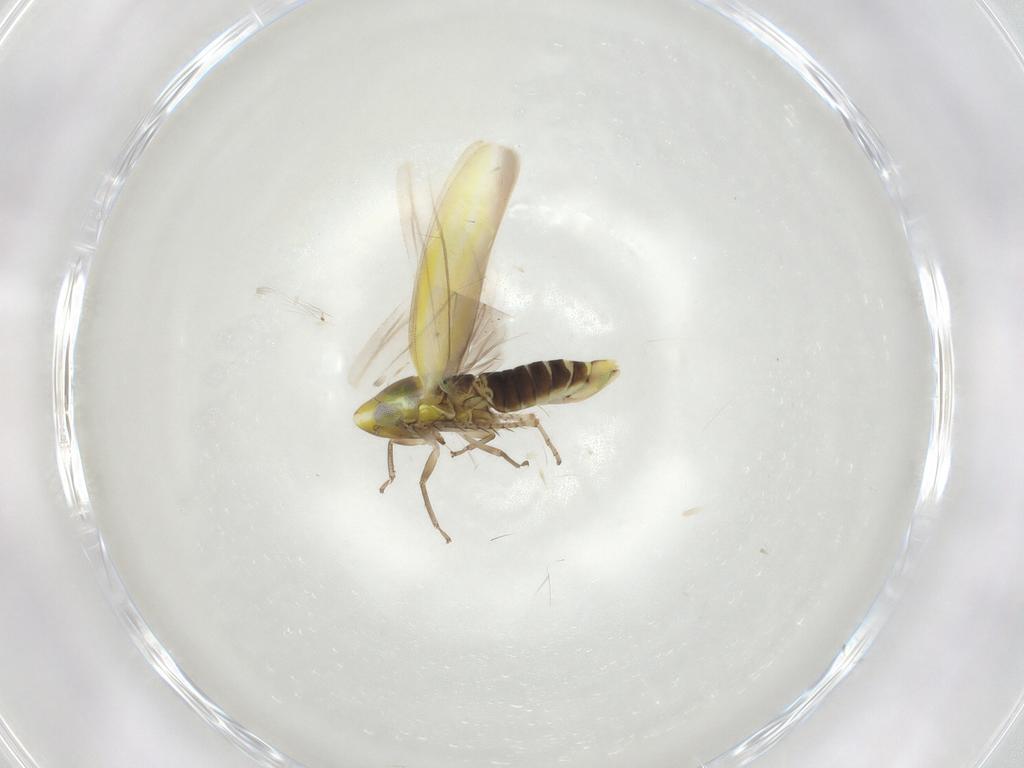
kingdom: Animalia
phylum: Arthropoda
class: Insecta
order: Hemiptera
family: Cicadellidae
